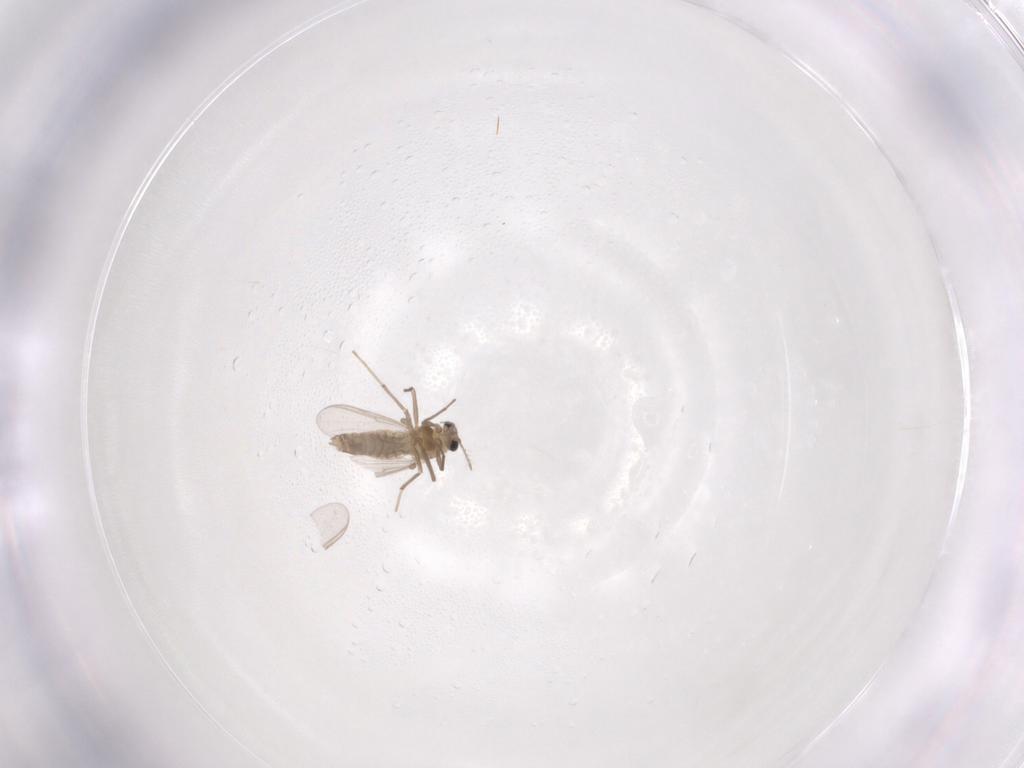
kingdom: Animalia
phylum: Arthropoda
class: Insecta
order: Diptera
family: Chironomidae
